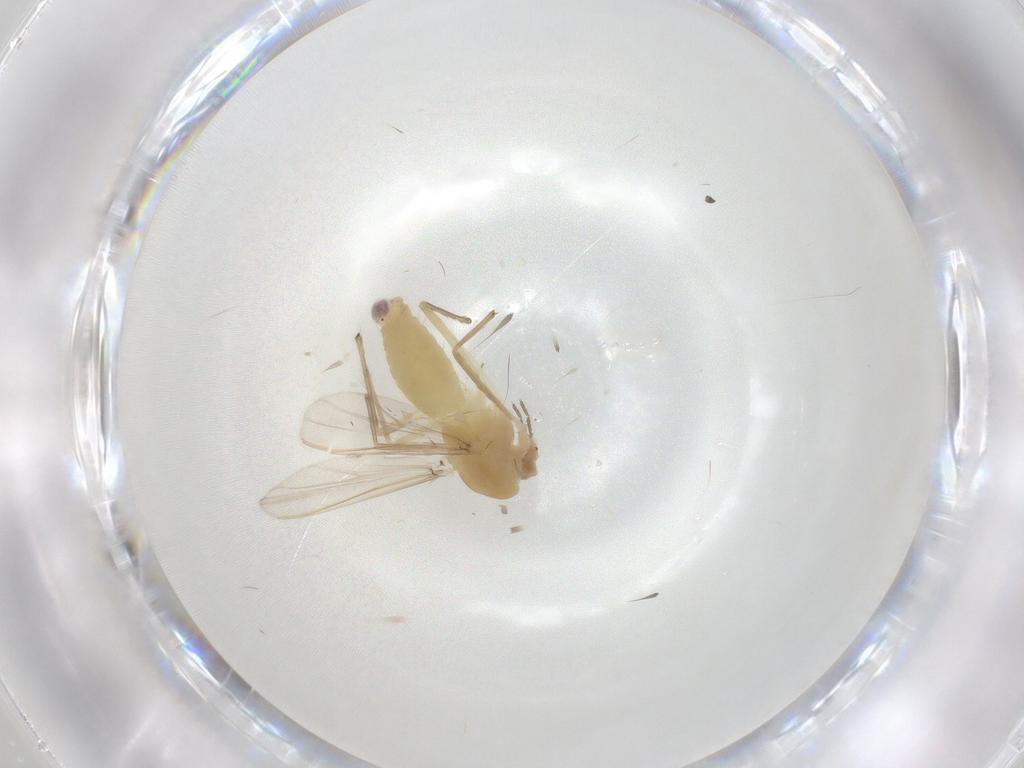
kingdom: Animalia
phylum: Arthropoda
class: Insecta
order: Diptera
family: Chironomidae
